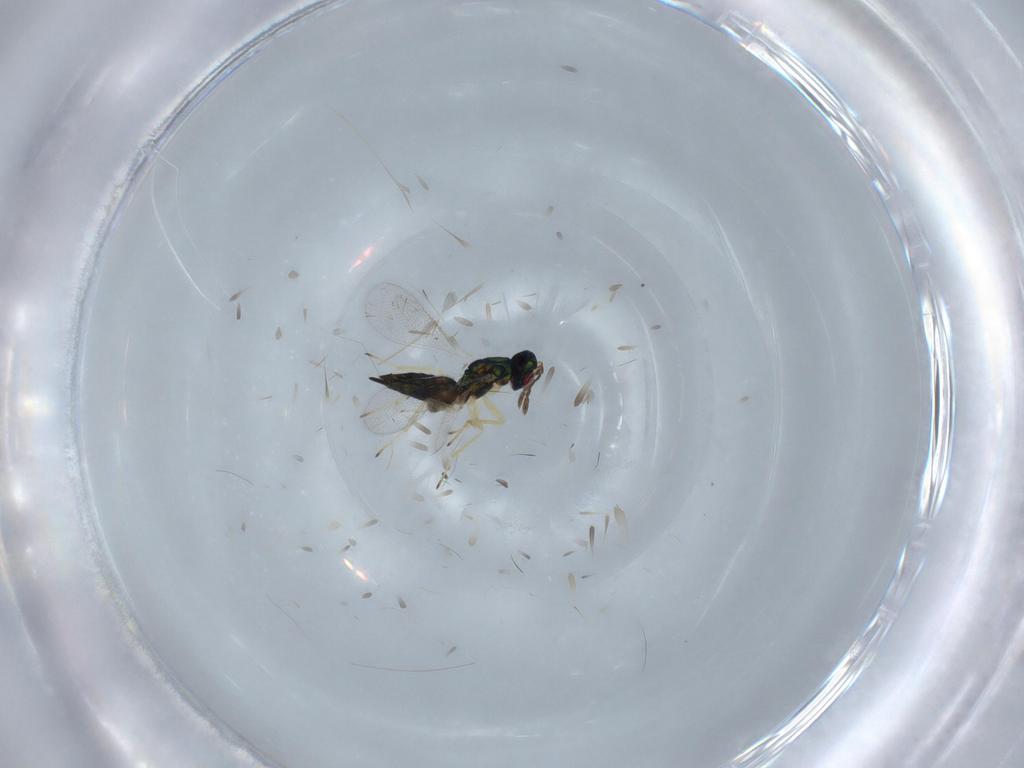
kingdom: Animalia
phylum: Arthropoda
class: Insecta
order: Hymenoptera
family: Eulophidae
